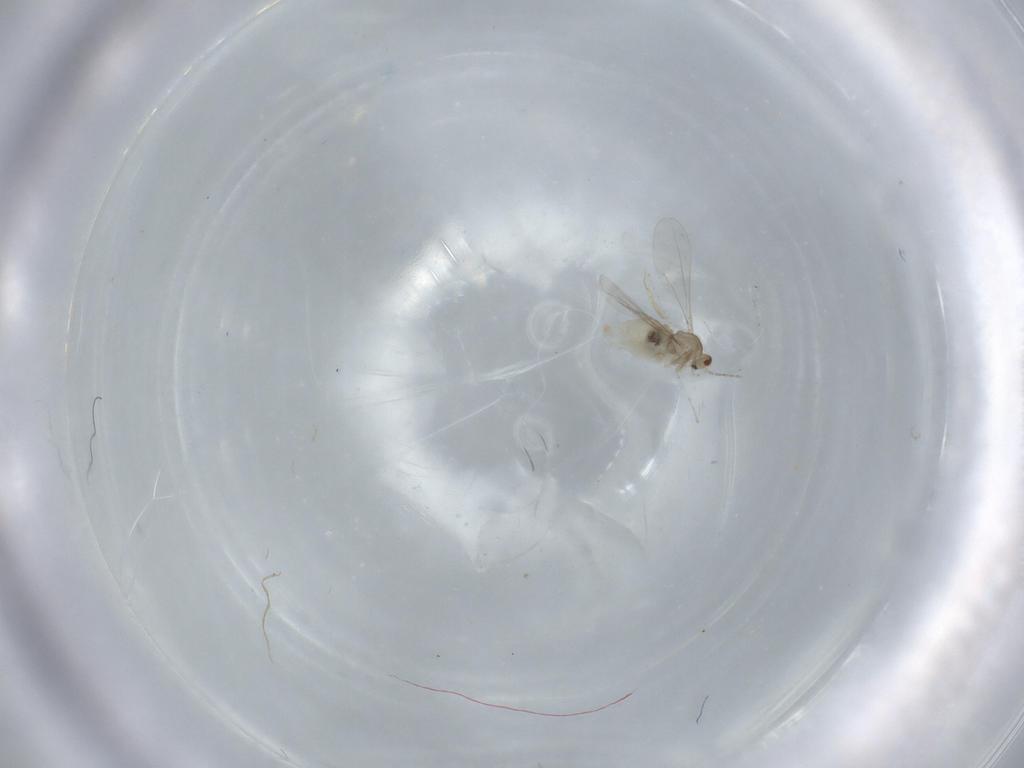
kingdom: Animalia
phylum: Arthropoda
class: Insecta
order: Diptera
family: Cecidomyiidae
